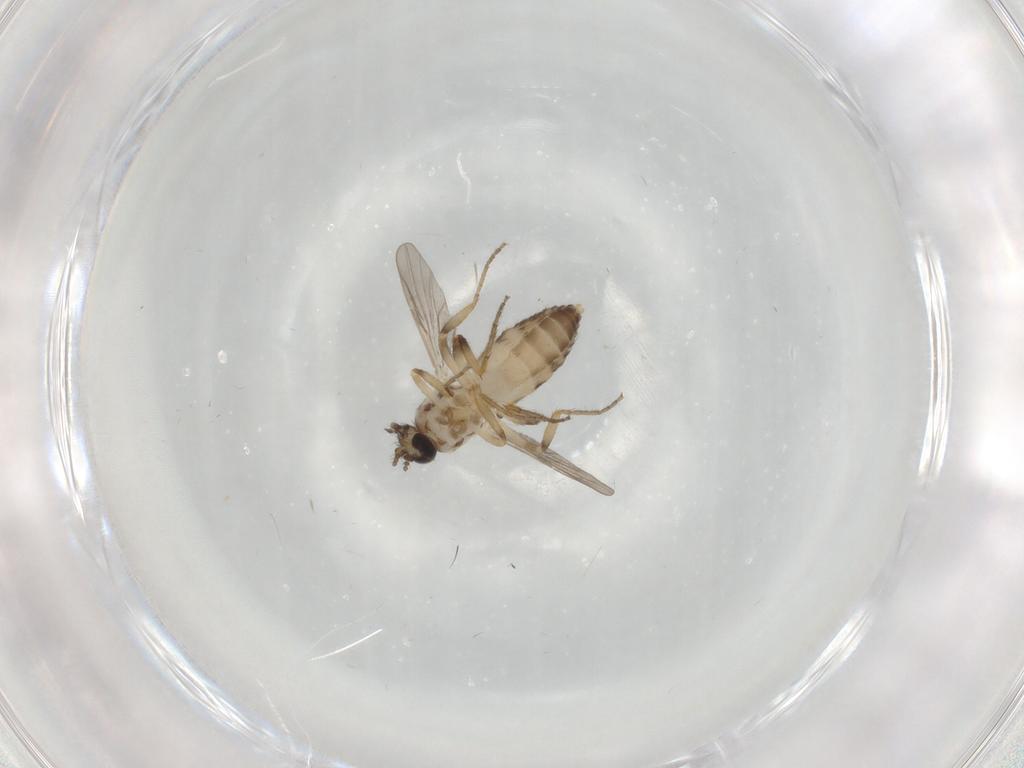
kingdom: Animalia
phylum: Arthropoda
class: Insecta
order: Diptera
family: Ceratopogonidae
